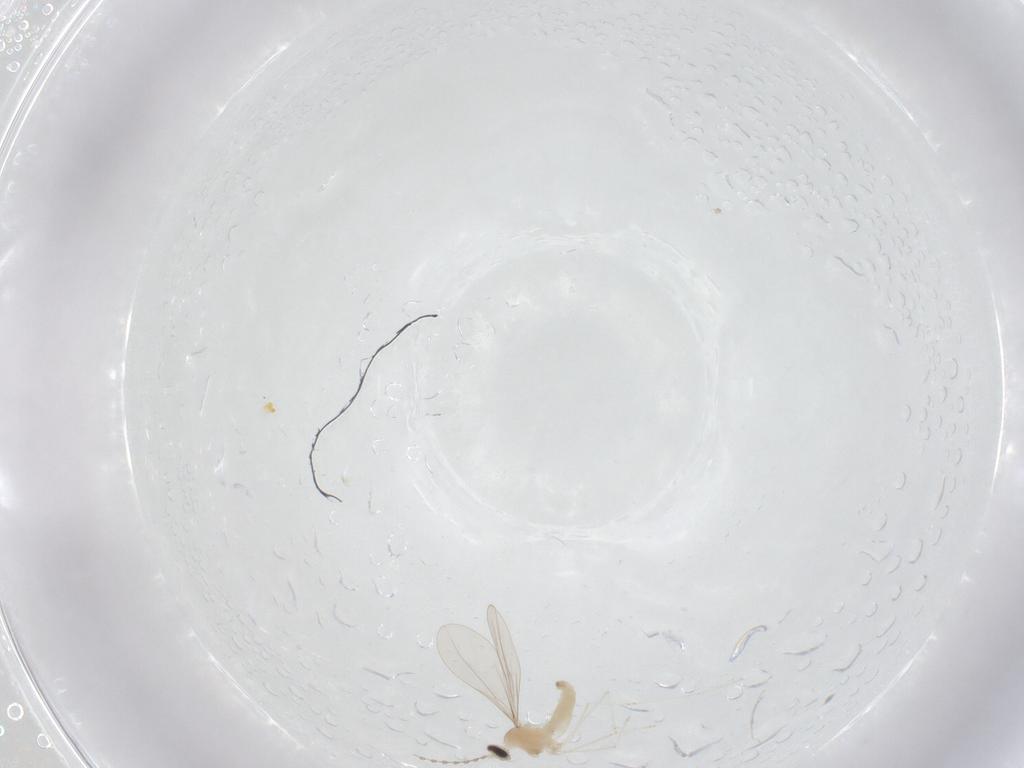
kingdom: Animalia
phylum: Arthropoda
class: Insecta
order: Diptera
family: Cecidomyiidae
